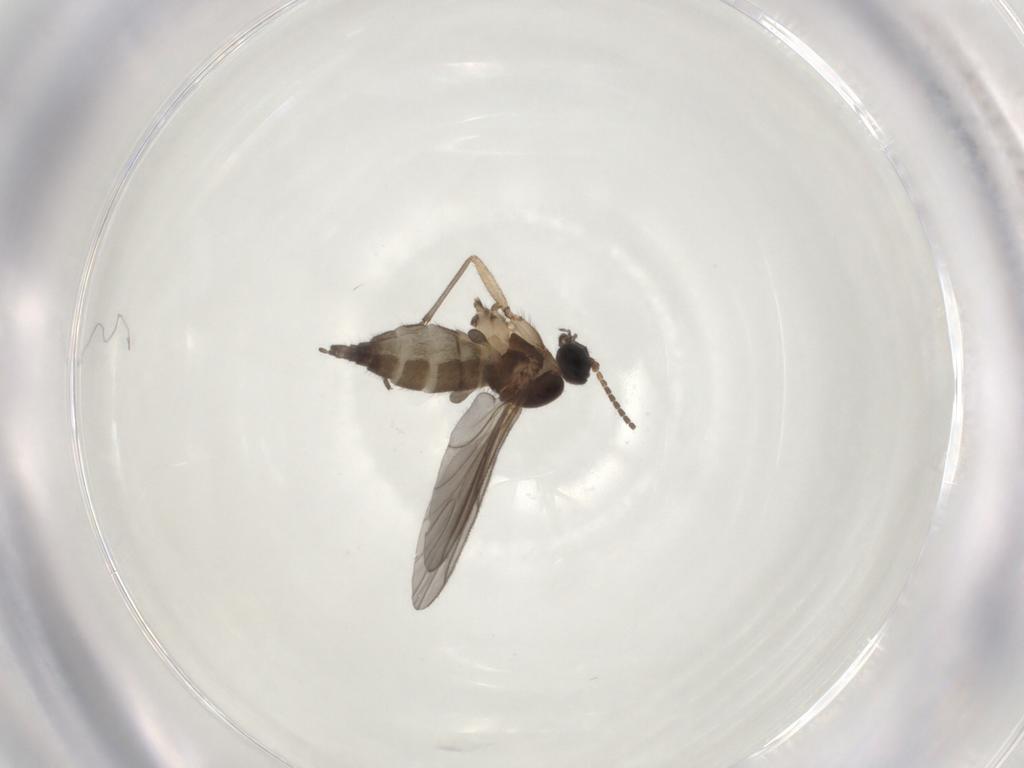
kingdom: Animalia
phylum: Arthropoda
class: Insecta
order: Diptera
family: Sciaridae
